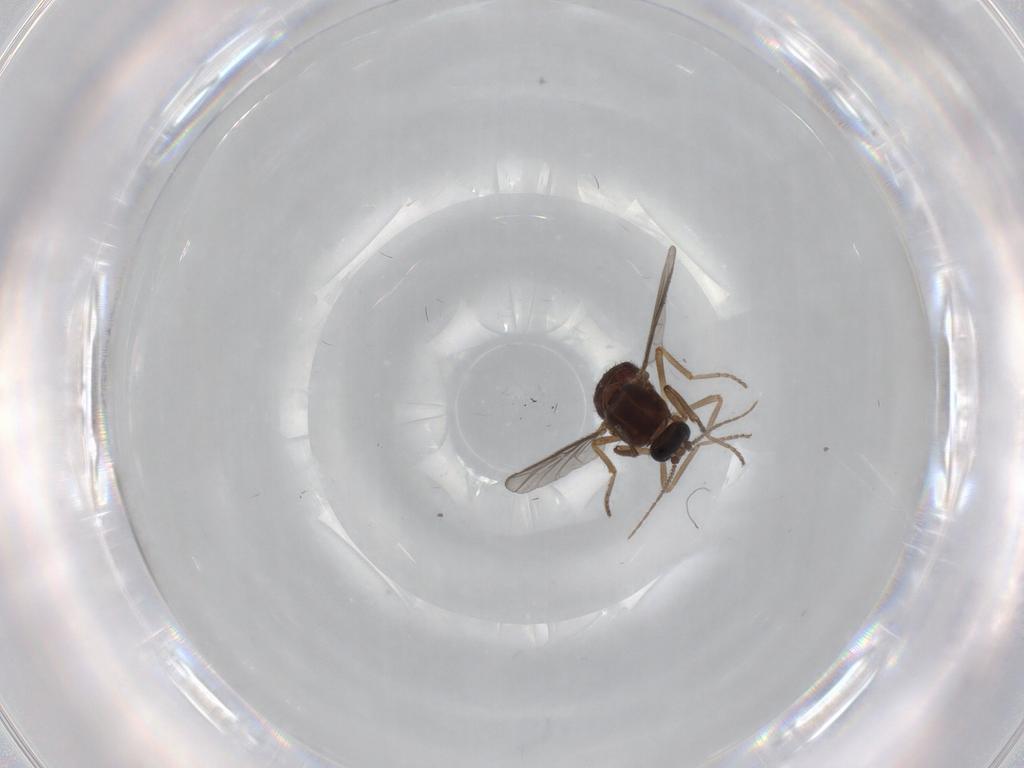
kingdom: Animalia
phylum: Arthropoda
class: Insecta
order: Diptera
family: Ceratopogonidae
